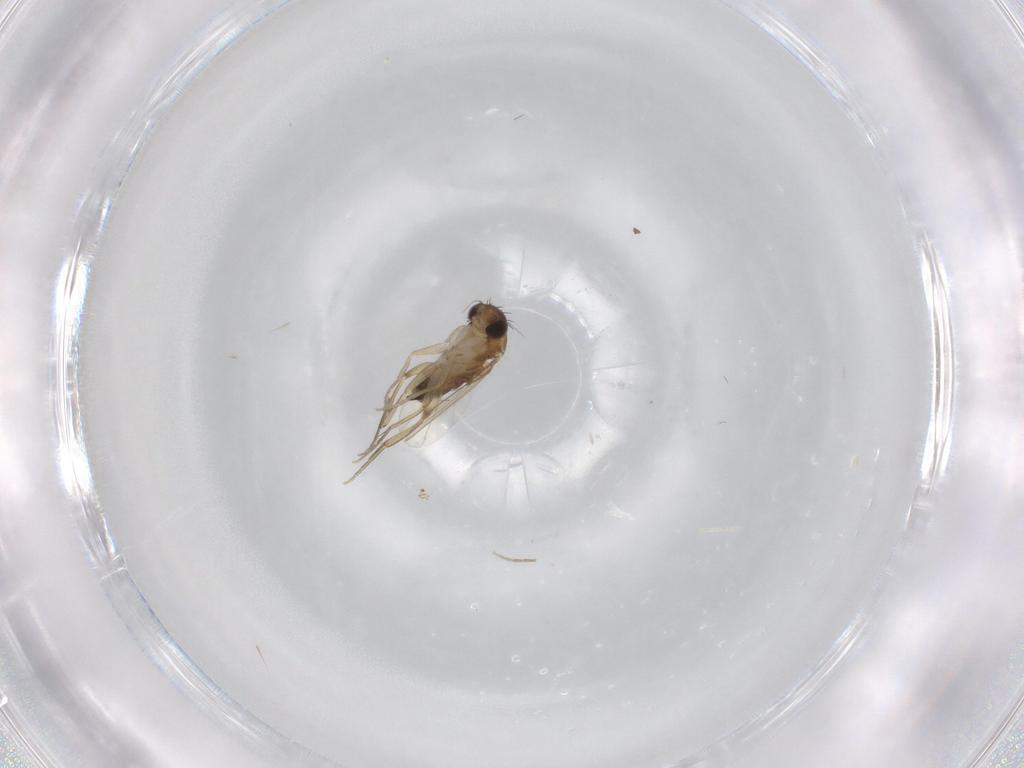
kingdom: Animalia
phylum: Arthropoda
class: Insecta
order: Diptera
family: Phoridae
